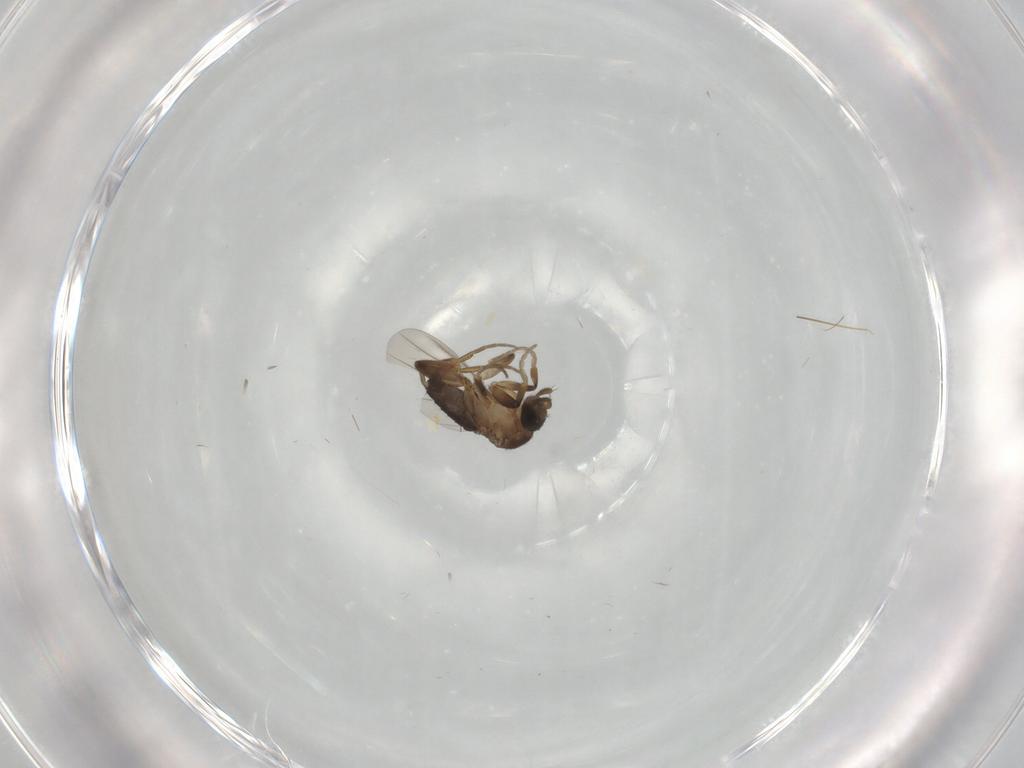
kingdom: Animalia
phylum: Arthropoda
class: Insecta
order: Diptera
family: Phoridae
